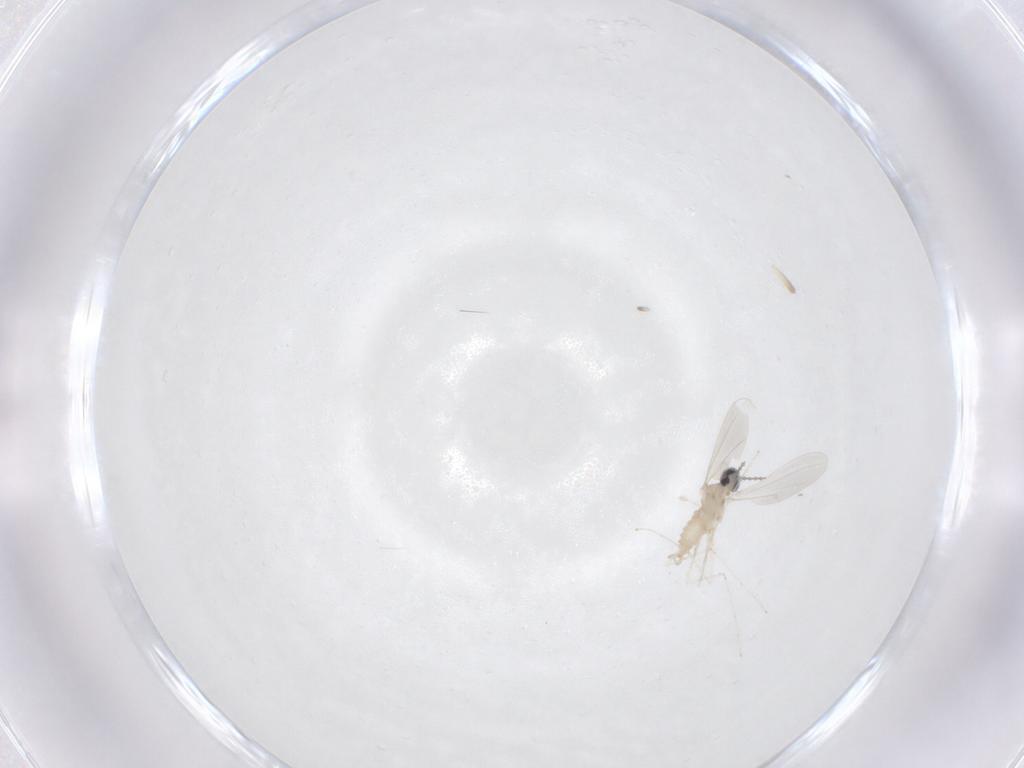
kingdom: Animalia
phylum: Arthropoda
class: Insecta
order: Diptera
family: Cecidomyiidae
